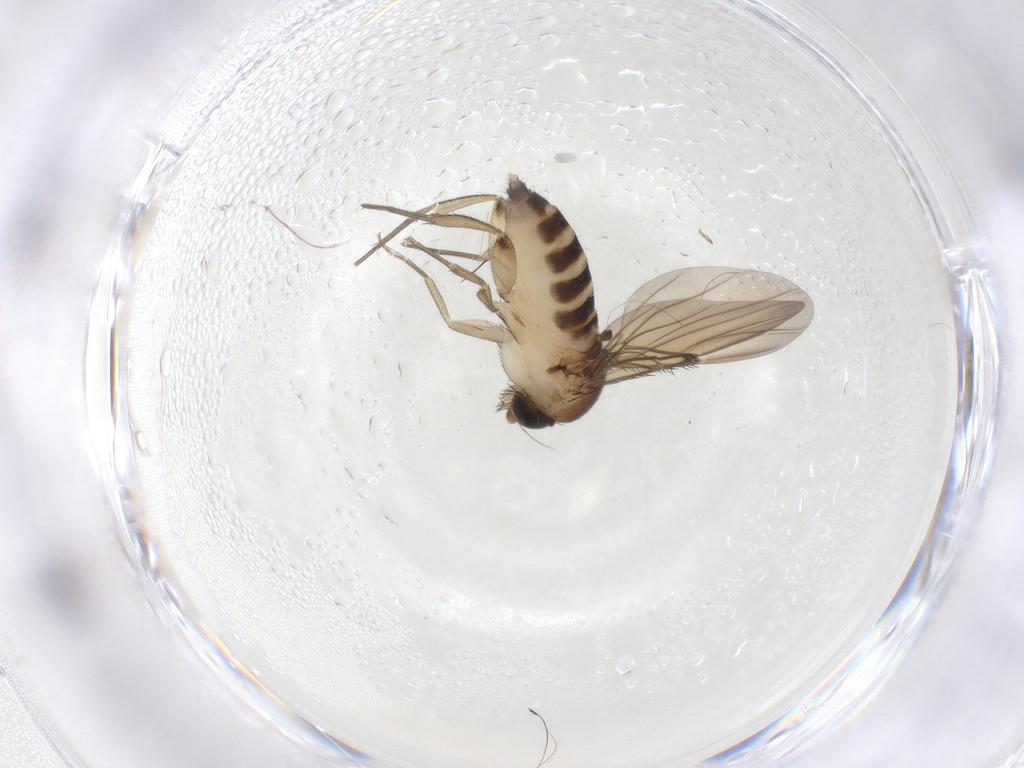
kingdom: Animalia
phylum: Arthropoda
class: Insecta
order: Diptera
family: Phoridae
